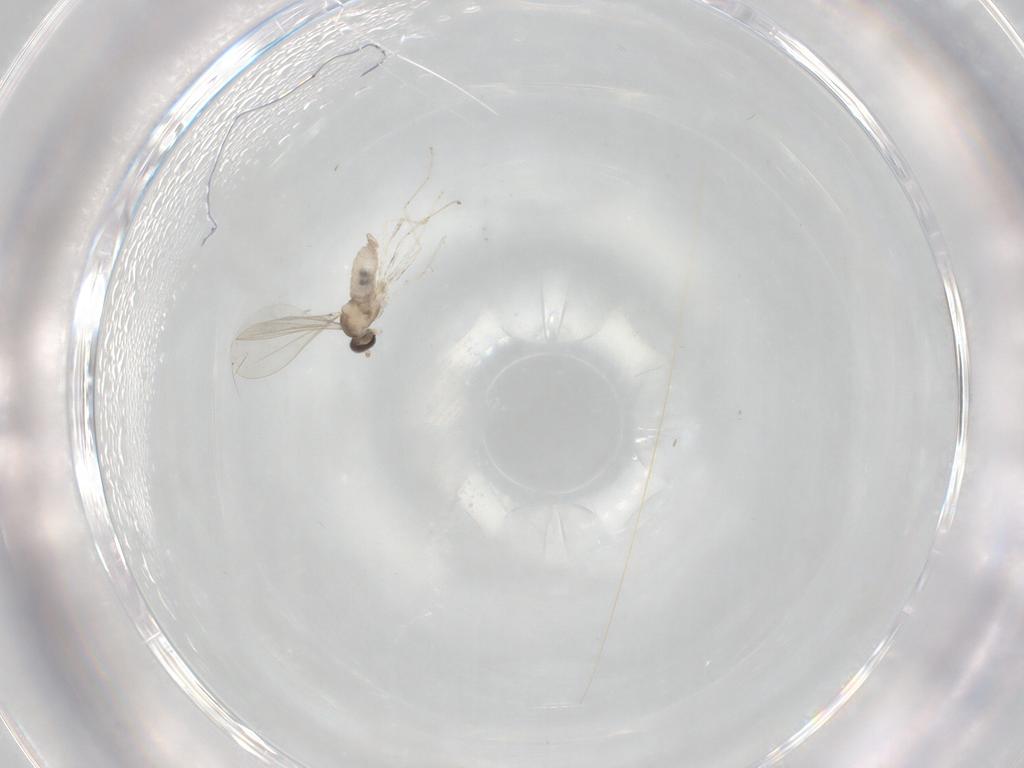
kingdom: Animalia
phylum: Arthropoda
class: Insecta
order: Diptera
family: Cecidomyiidae
